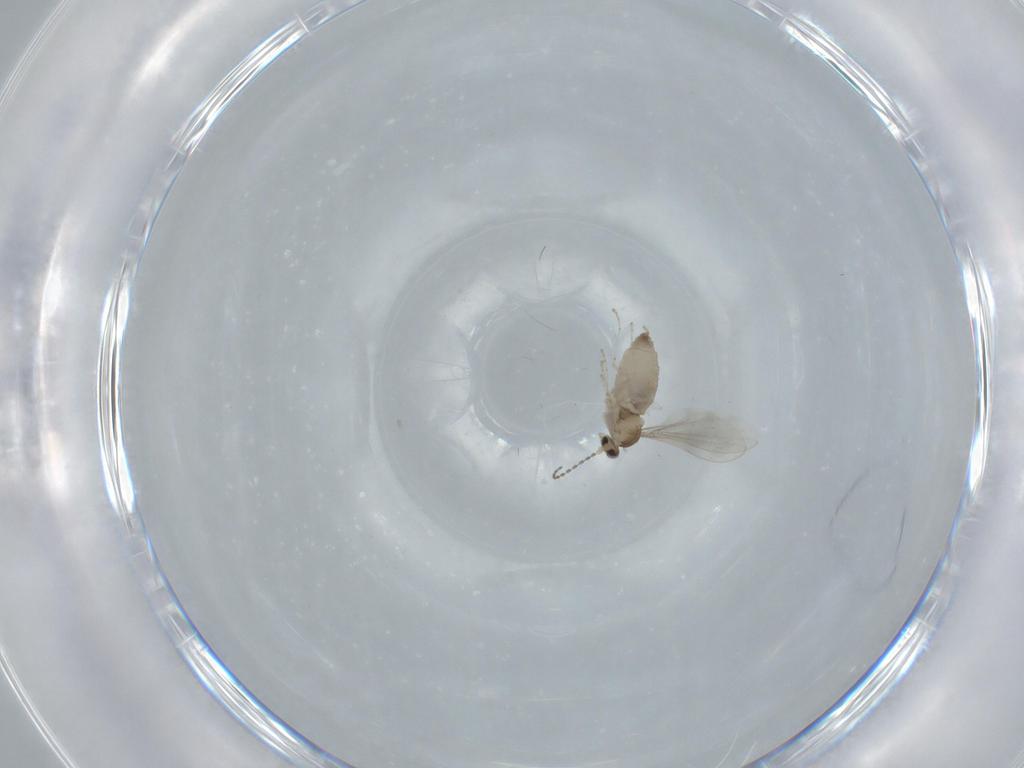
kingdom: Animalia
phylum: Arthropoda
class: Insecta
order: Diptera
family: Cecidomyiidae
